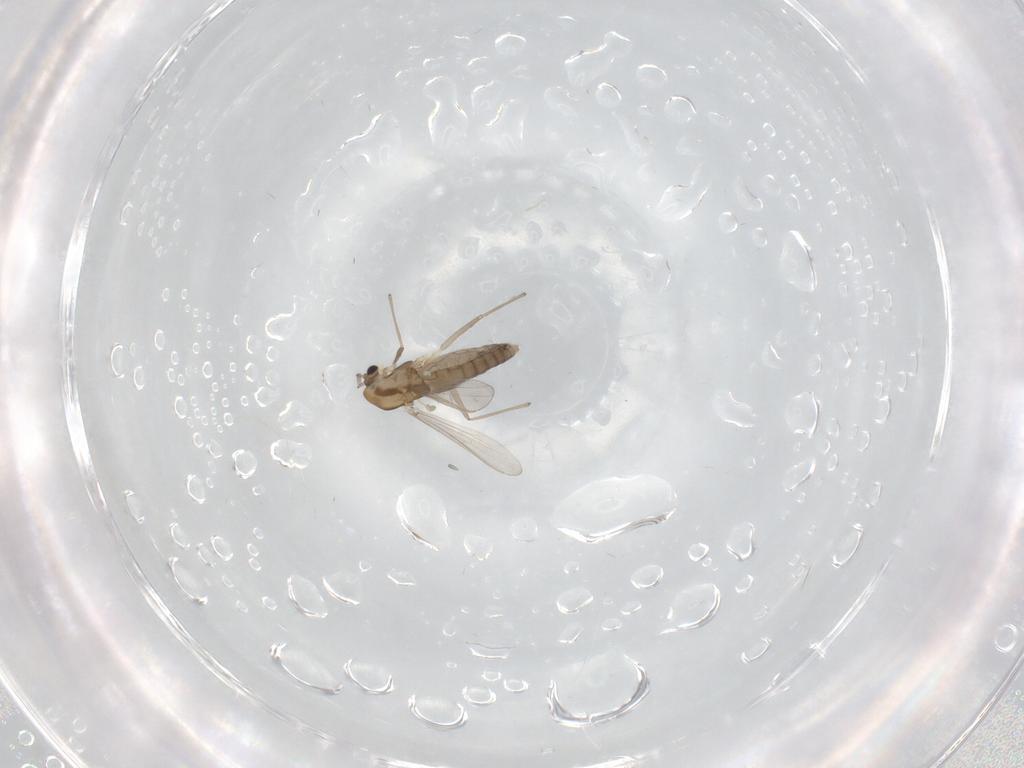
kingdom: Animalia
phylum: Arthropoda
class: Insecta
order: Diptera
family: Chironomidae
